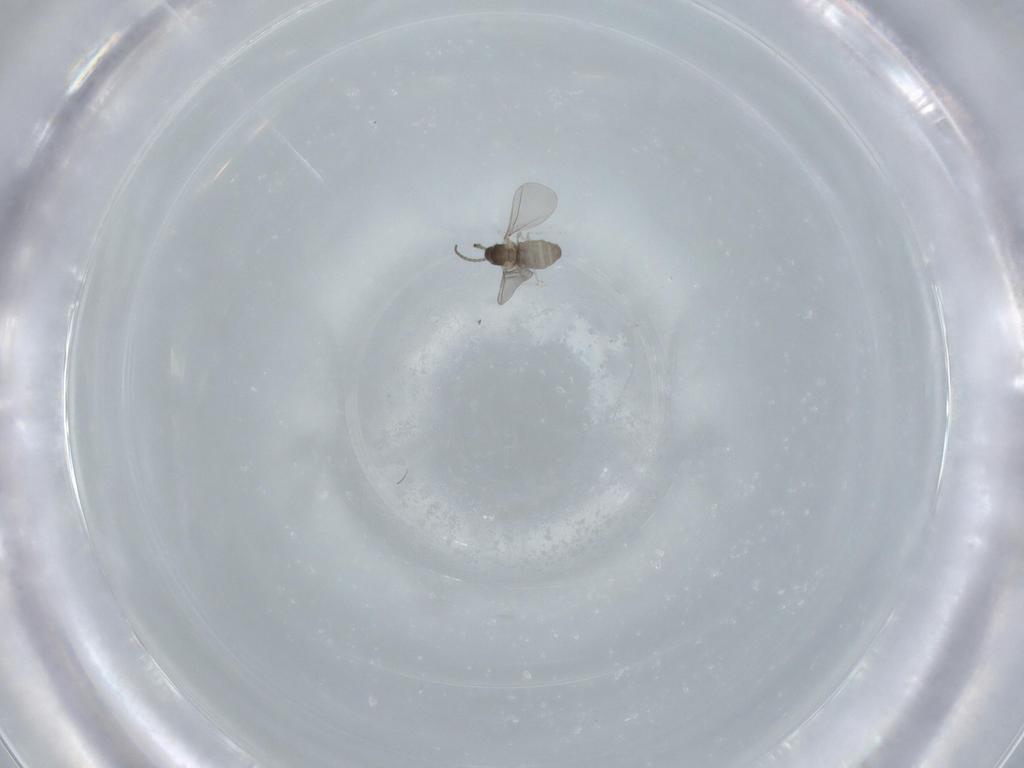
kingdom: Animalia
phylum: Arthropoda
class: Insecta
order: Diptera
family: Cecidomyiidae
